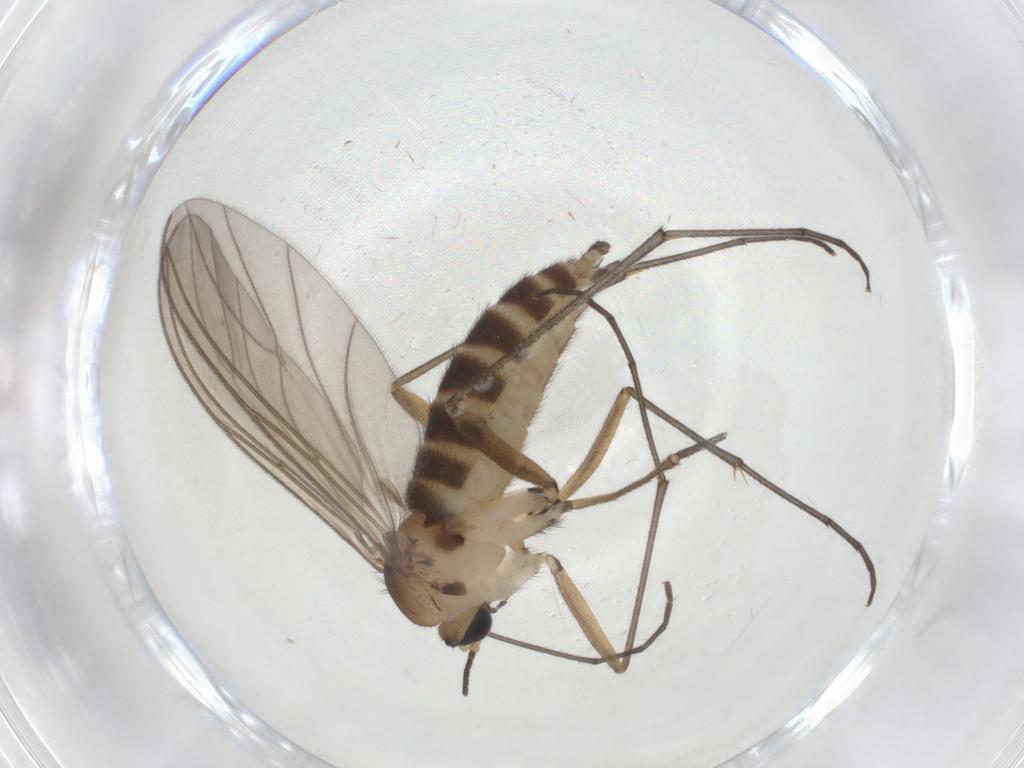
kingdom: Animalia
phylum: Arthropoda
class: Insecta
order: Diptera
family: Sciaridae
